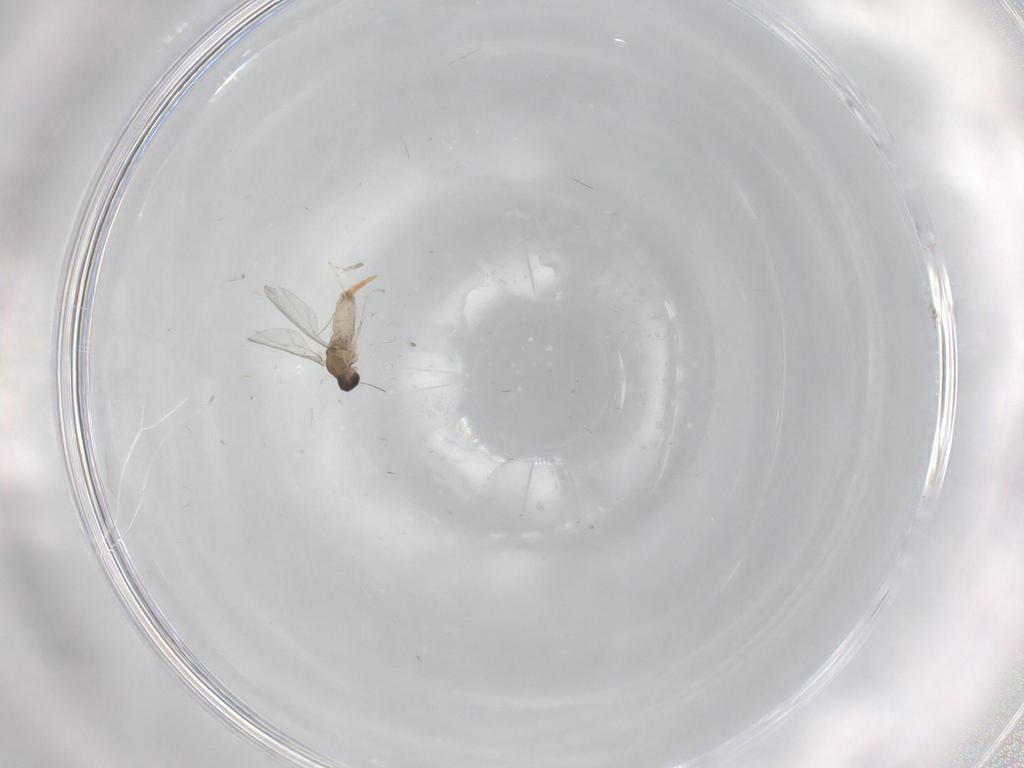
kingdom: Animalia
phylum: Arthropoda
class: Insecta
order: Diptera
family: Cecidomyiidae
